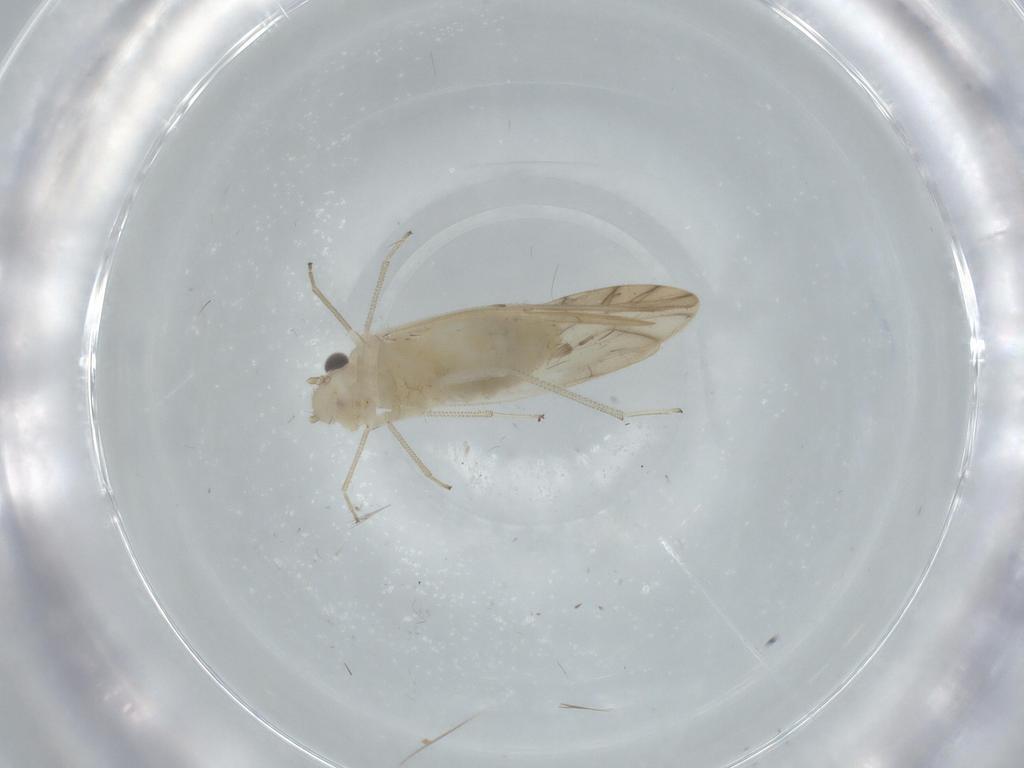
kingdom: Animalia
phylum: Arthropoda
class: Insecta
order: Psocodea
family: Caeciliusidae
